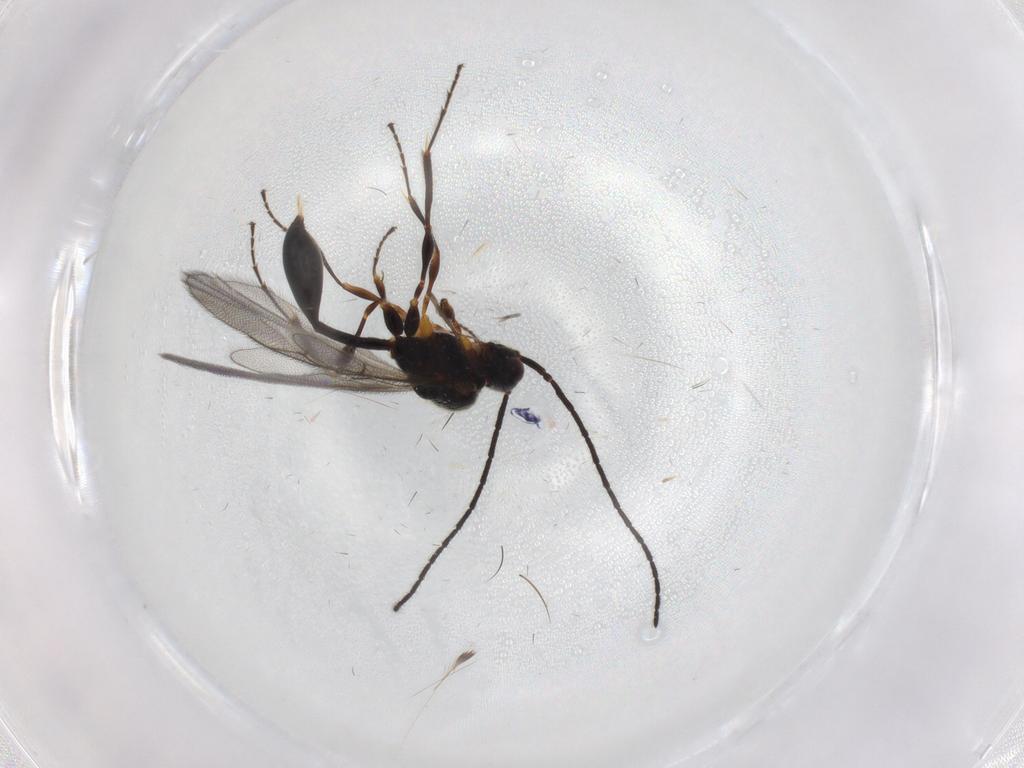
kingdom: Animalia
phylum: Arthropoda
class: Insecta
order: Hymenoptera
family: Diapriidae
